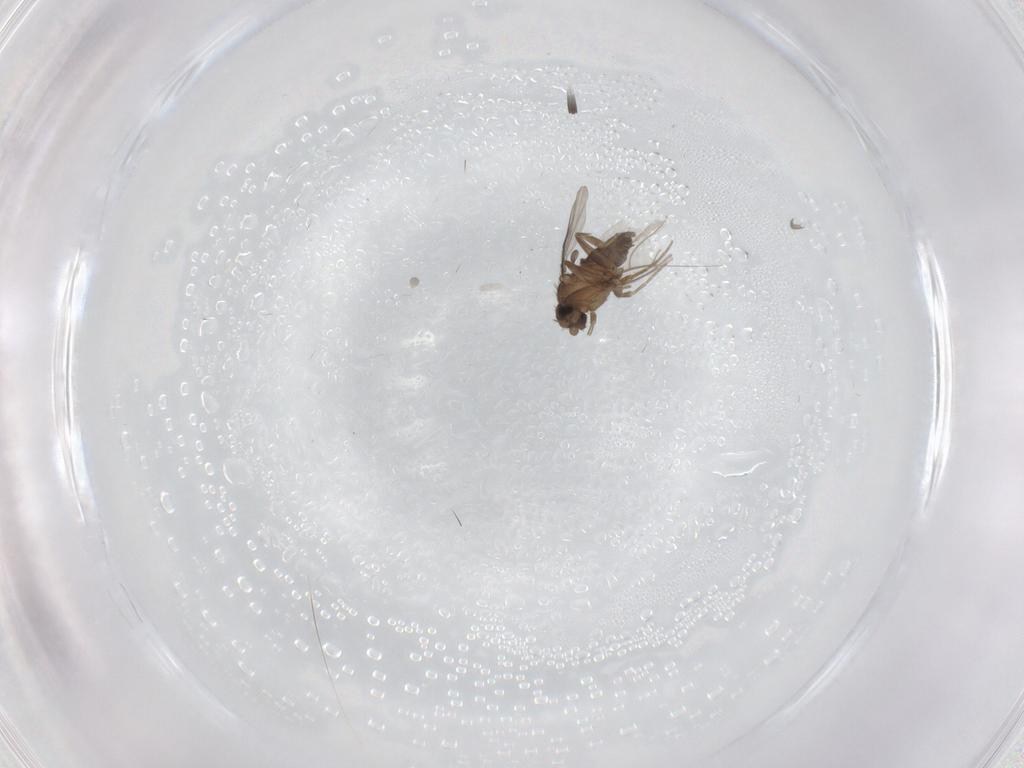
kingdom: Animalia
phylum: Arthropoda
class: Insecta
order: Diptera
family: Phoridae
